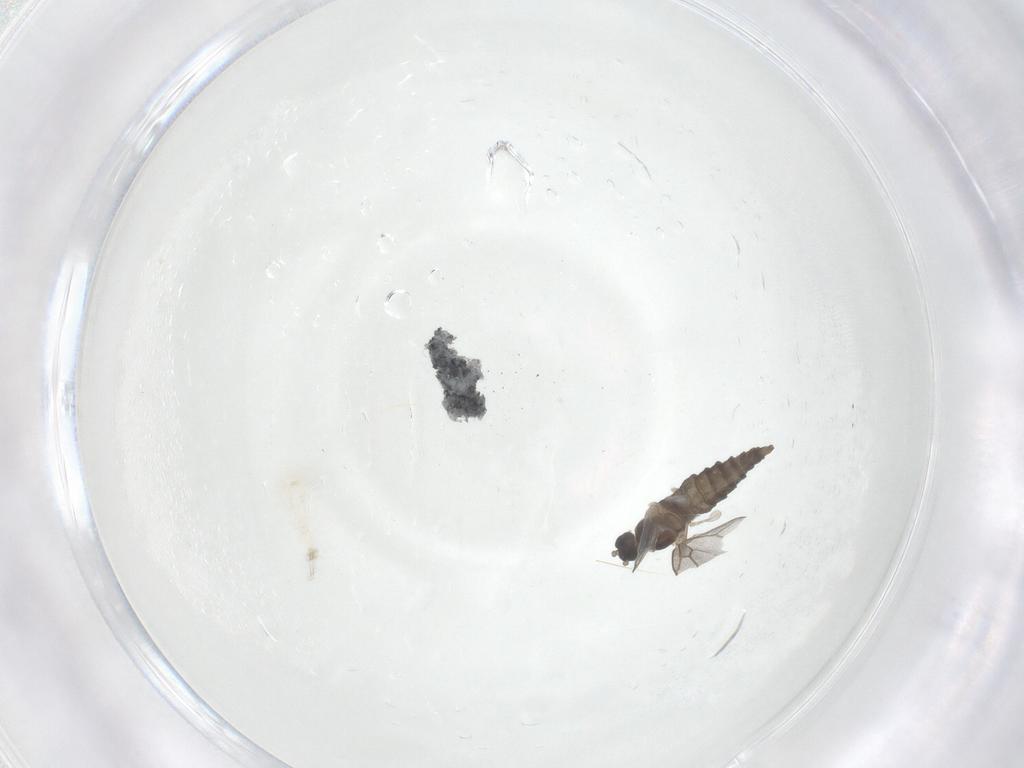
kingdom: Animalia
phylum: Arthropoda
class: Insecta
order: Diptera
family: Cecidomyiidae
